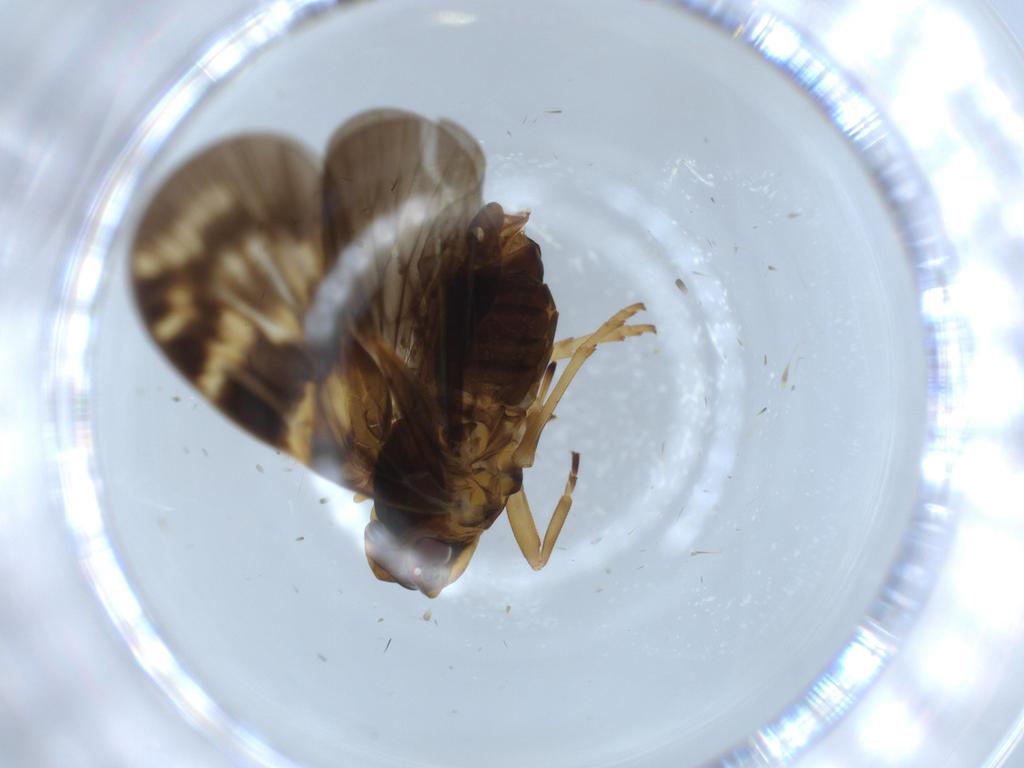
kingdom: Animalia
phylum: Arthropoda
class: Insecta
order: Hemiptera
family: Cixiidae
